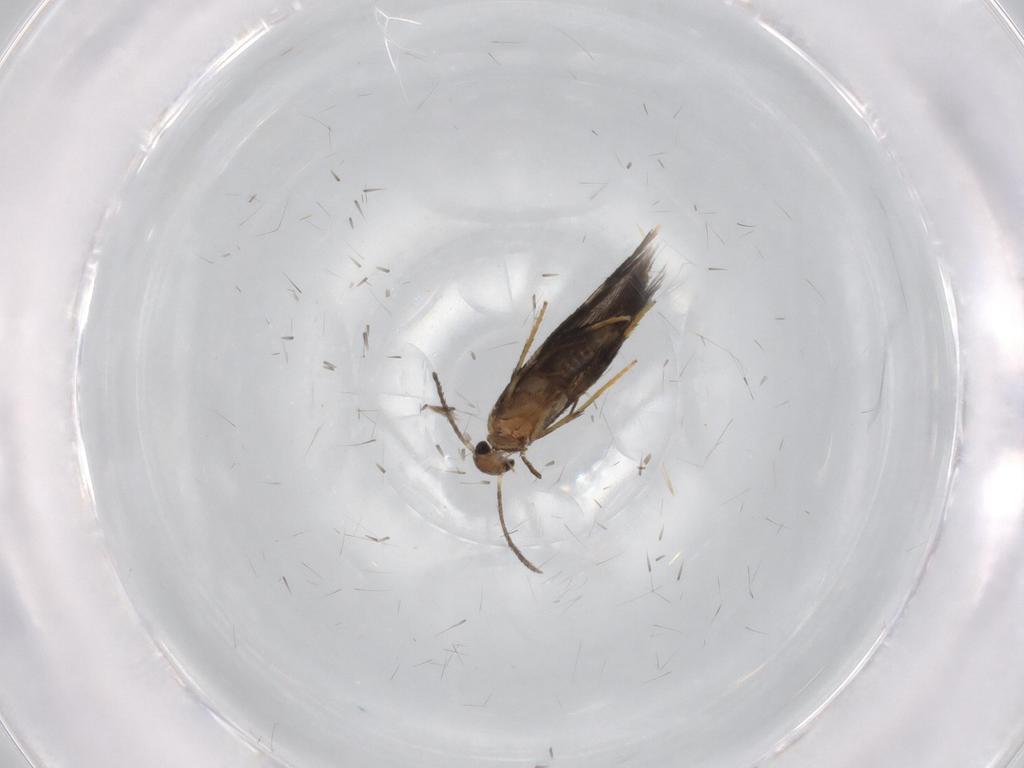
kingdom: Animalia
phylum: Arthropoda
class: Insecta
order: Lepidoptera
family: Heliozelidae
